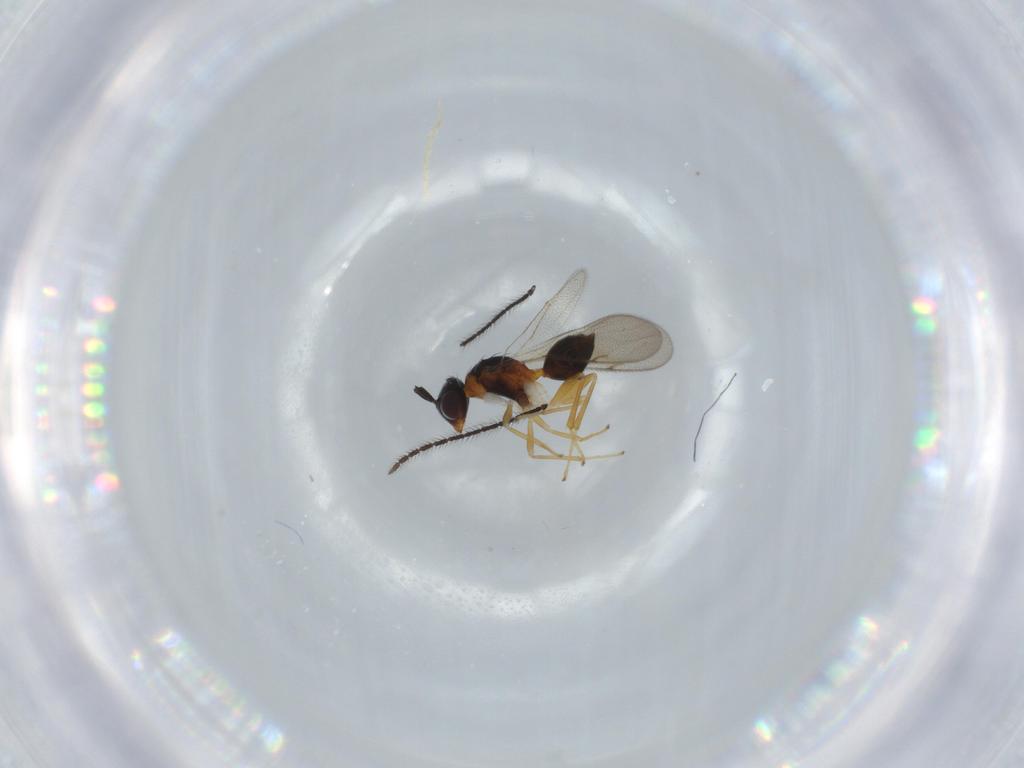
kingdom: Animalia
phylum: Arthropoda
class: Insecta
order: Hymenoptera
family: Diparidae
